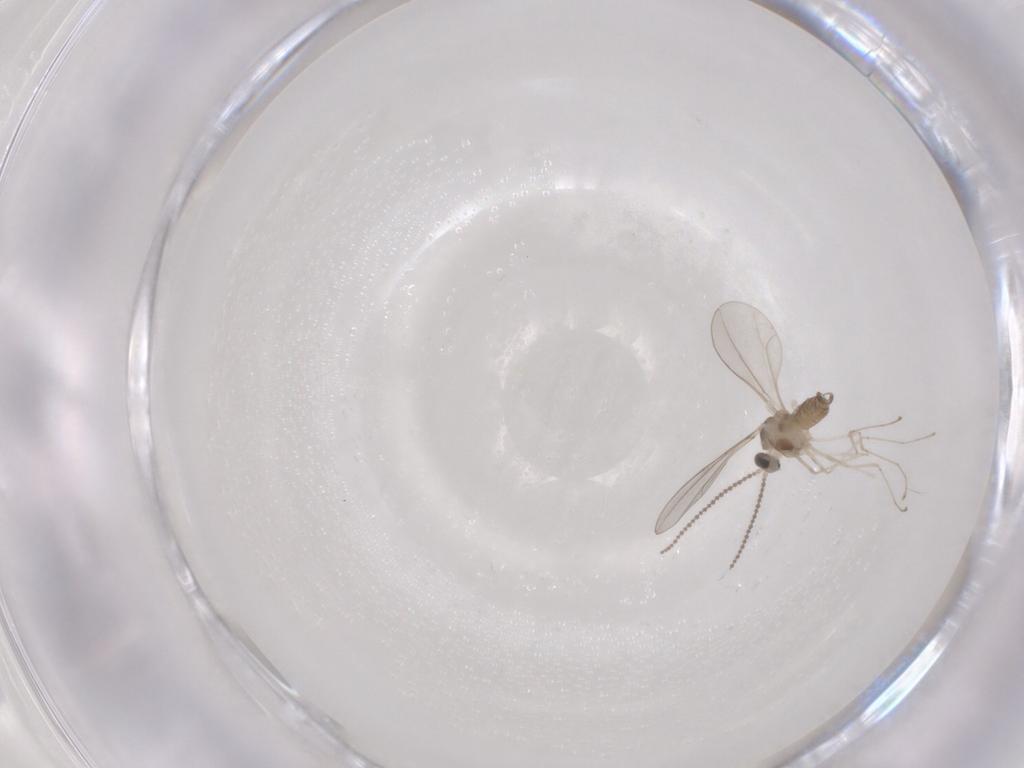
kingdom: Animalia
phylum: Arthropoda
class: Insecta
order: Diptera
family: Cecidomyiidae
